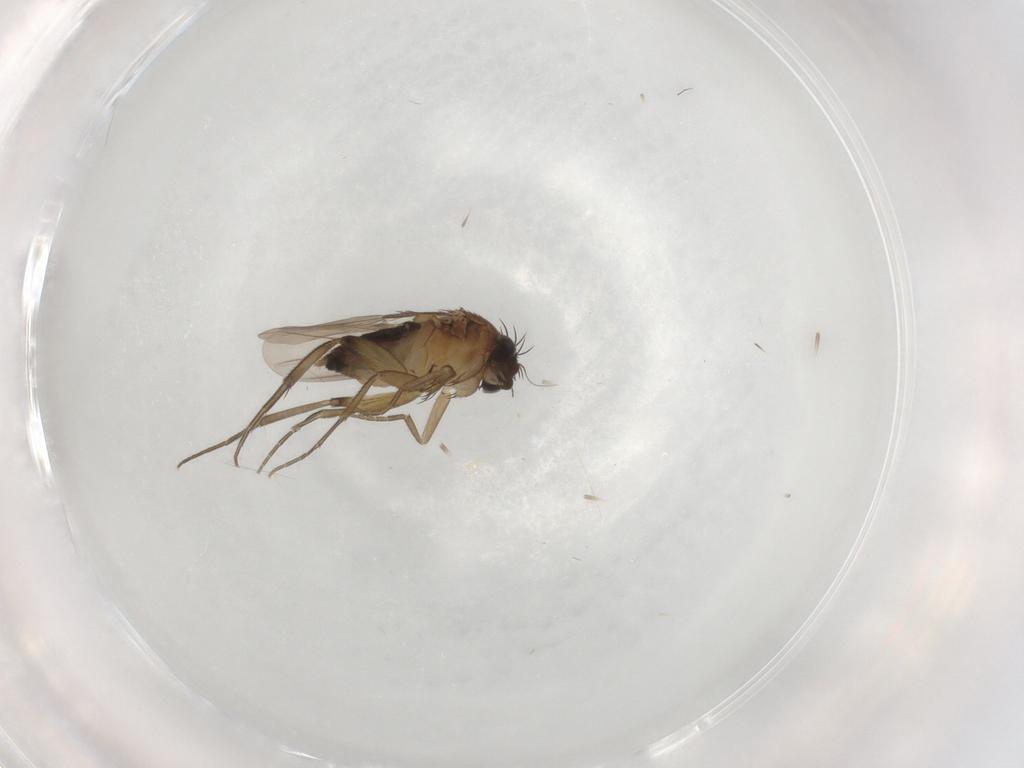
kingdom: Animalia
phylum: Arthropoda
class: Insecta
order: Diptera
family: Phoridae
